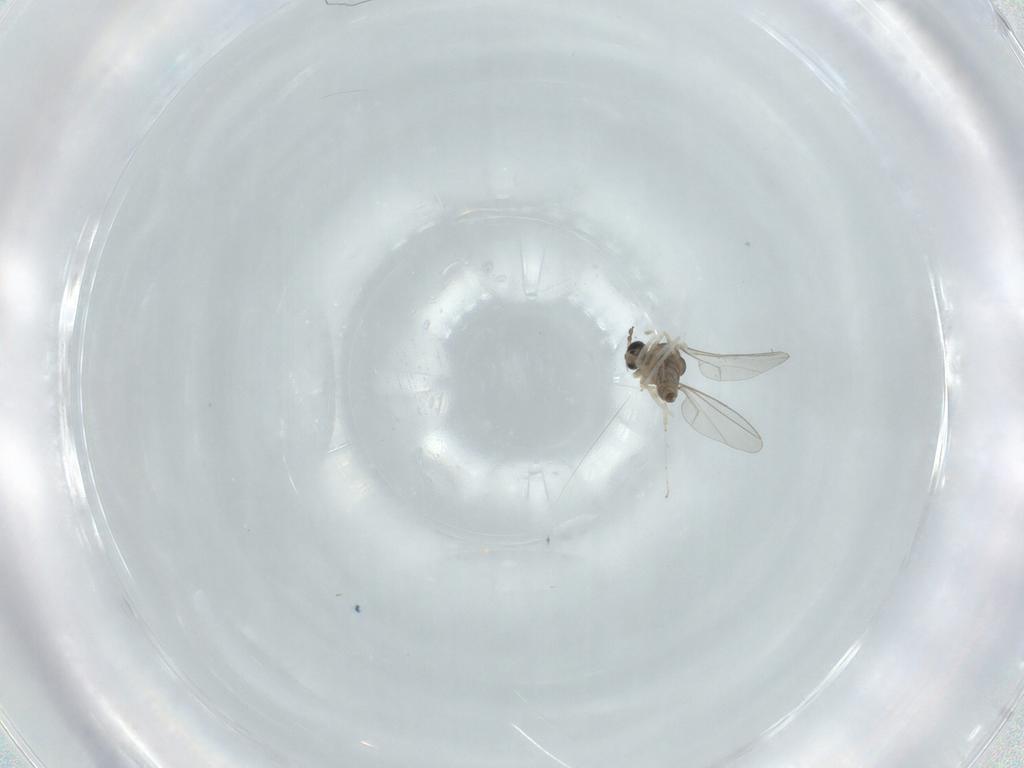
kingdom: Animalia
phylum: Arthropoda
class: Insecta
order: Diptera
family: Cecidomyiidae
